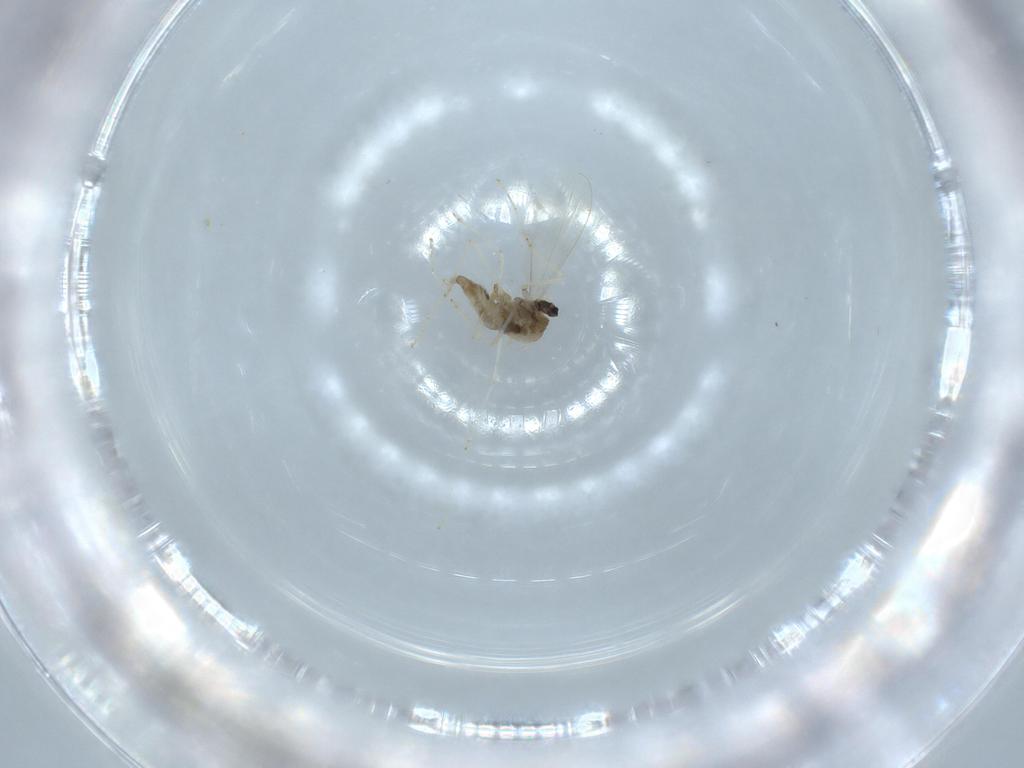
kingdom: Animalia
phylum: Arthropoda
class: Insecta
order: Diptera
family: Cecidomyiidae
